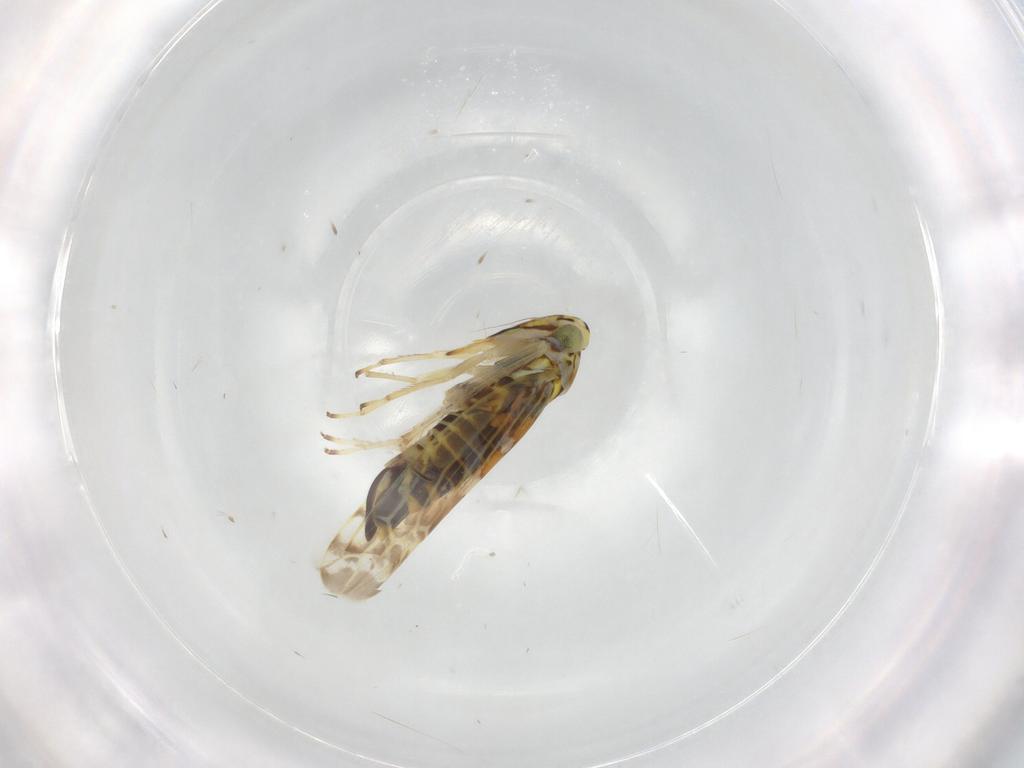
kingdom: Animalia
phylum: Arthropoda
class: Insecta
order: Hemiptera
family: Cicadellidae
